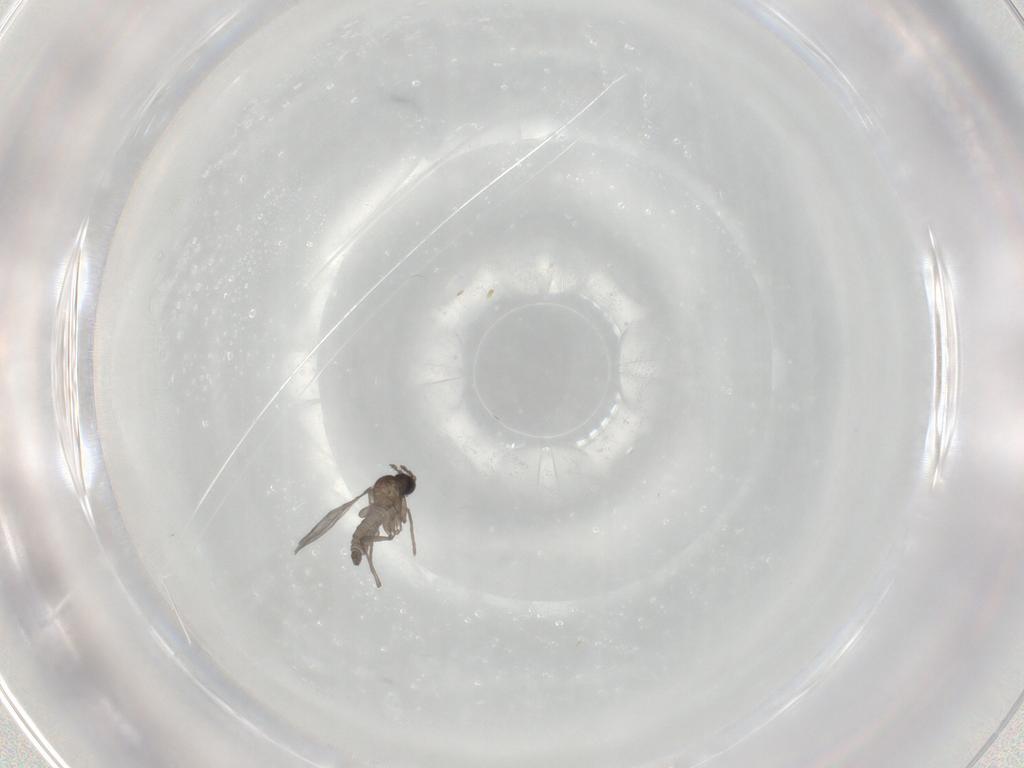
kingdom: Animalia
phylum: Arthropoda
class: Insecta
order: Diptera
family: Sciaridae
